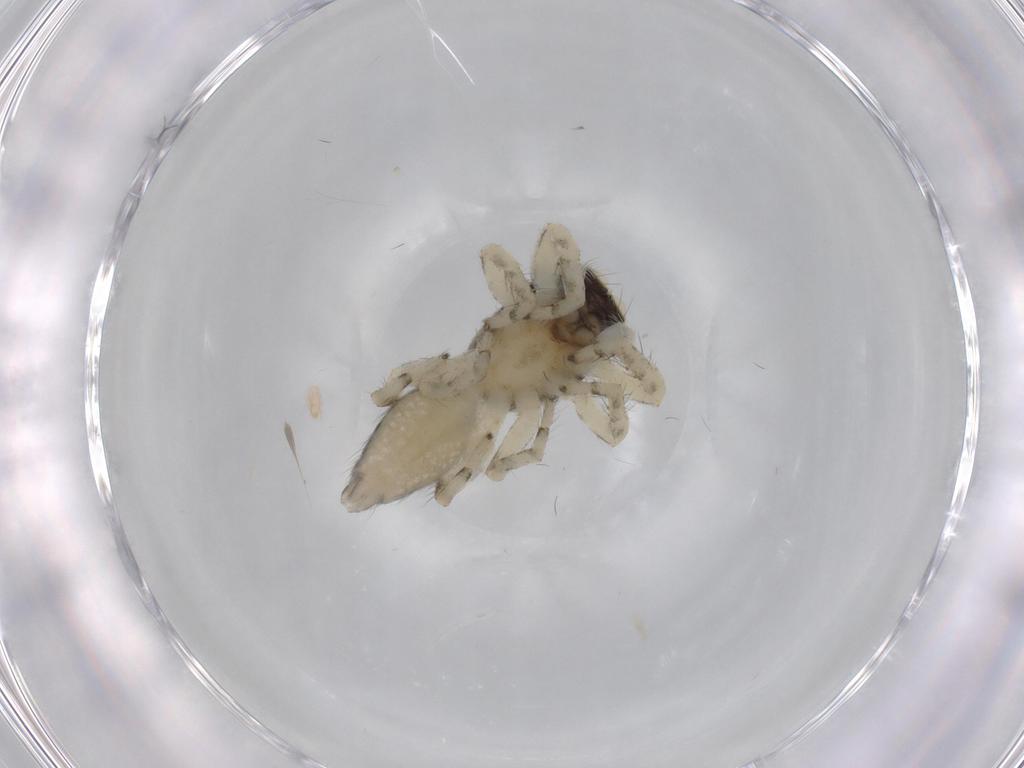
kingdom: Animalia
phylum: Arthropoda
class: Arachnida
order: Araneae
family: Salticidae
